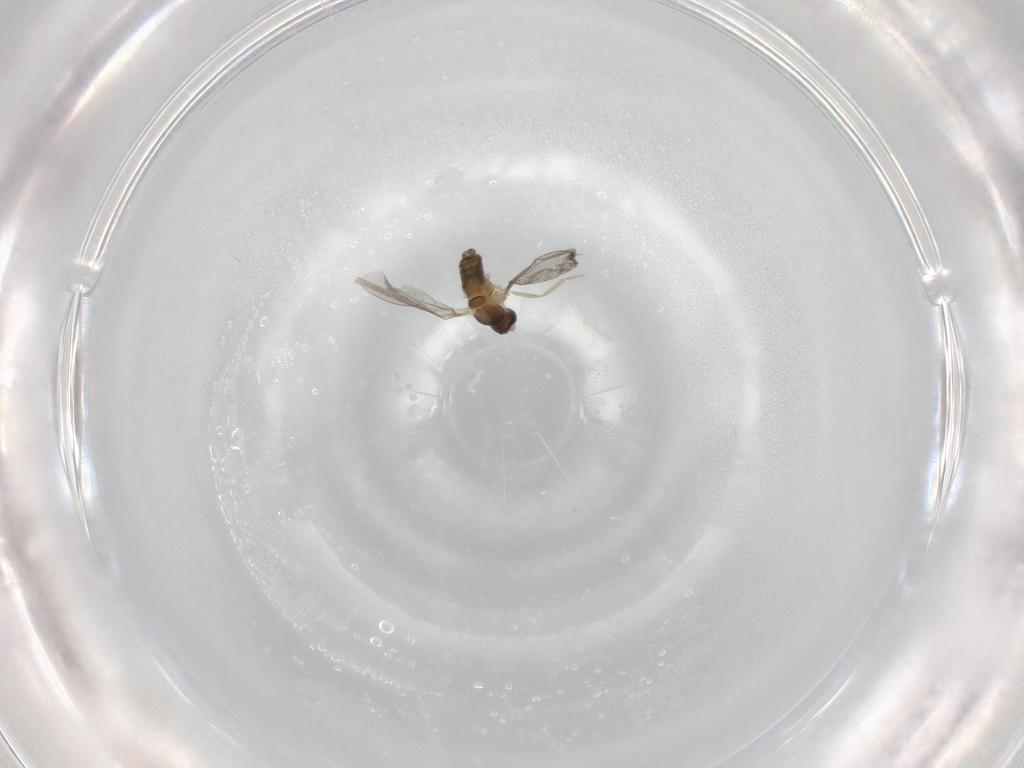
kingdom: Animalia
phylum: Arthropoda
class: Insecta
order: Diptera
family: Cecidomyiidae
